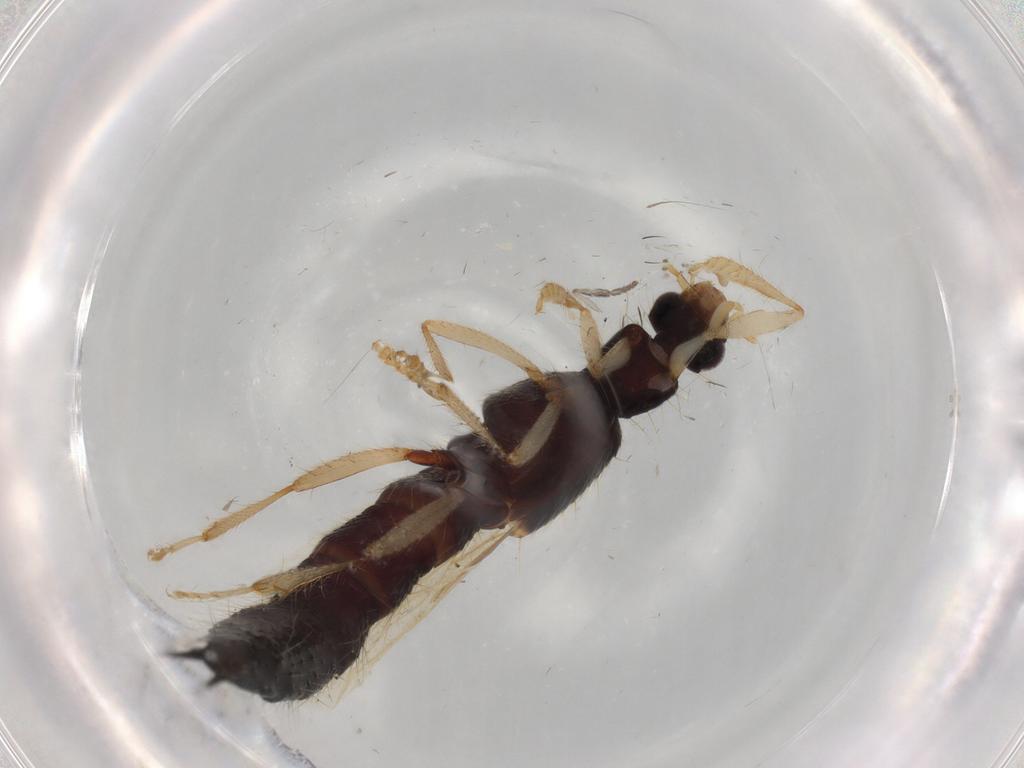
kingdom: Animalia
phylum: Arthropoda
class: Insecta
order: Coleoptera
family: Staphylinidae
